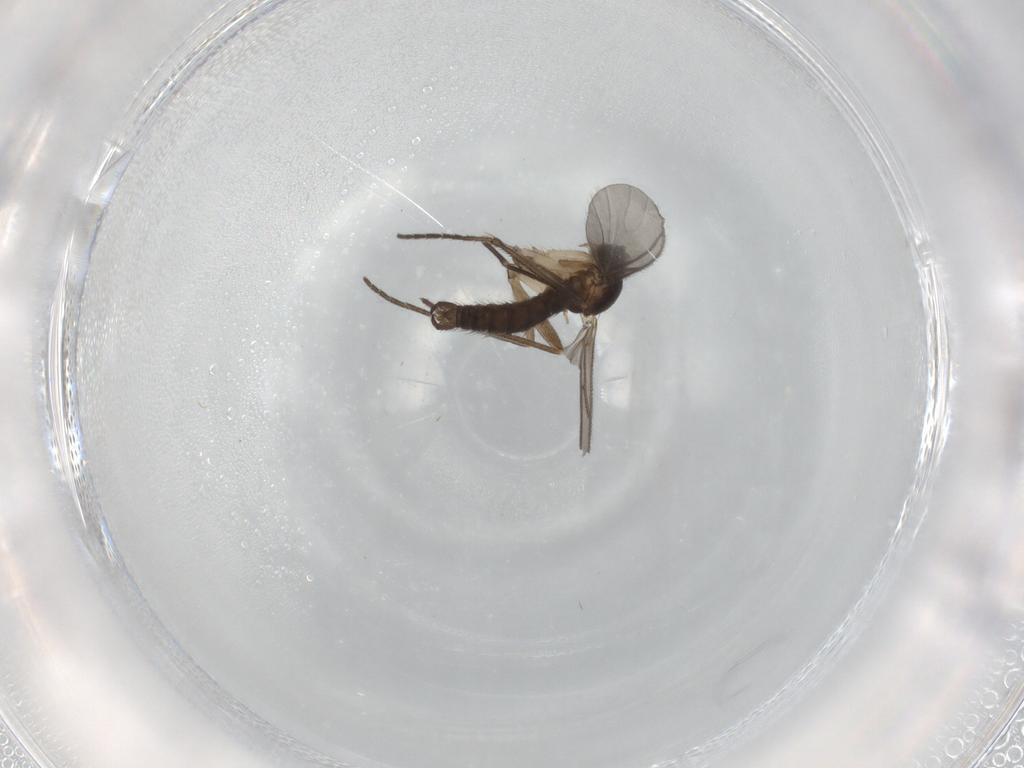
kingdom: Animalia
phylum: Arthropoda
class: Insecta
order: Diptera
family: Sciaridae
